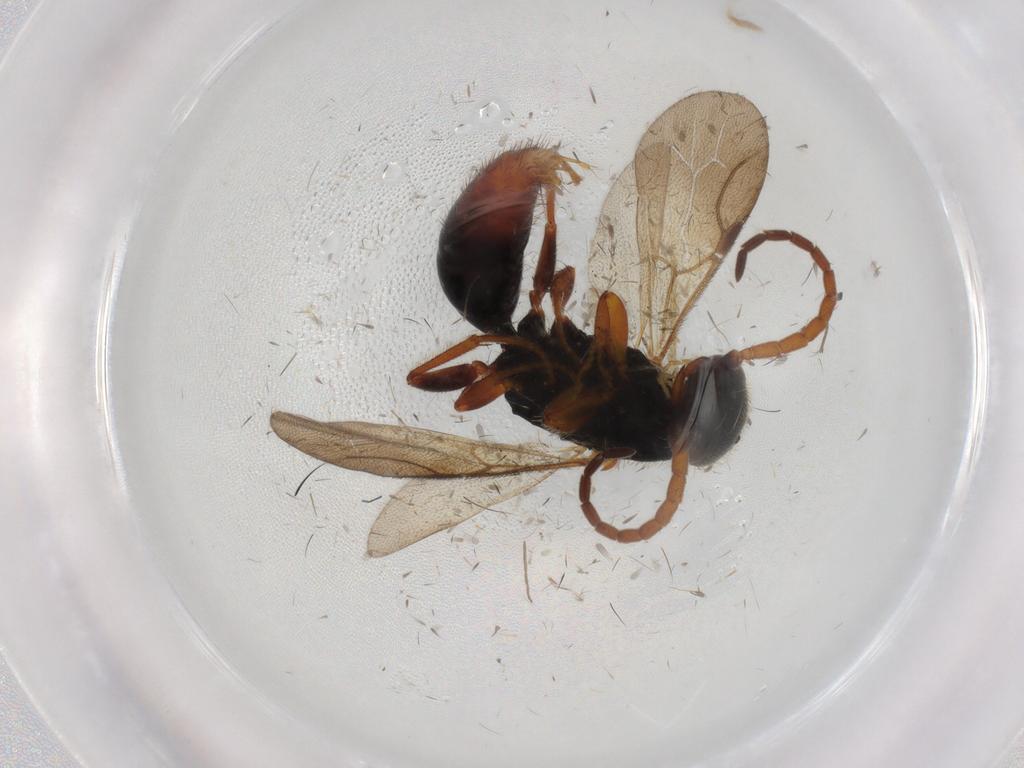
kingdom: Animalia
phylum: Arthropoda
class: Insecta
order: Hymenoptera
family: Bethylidae
